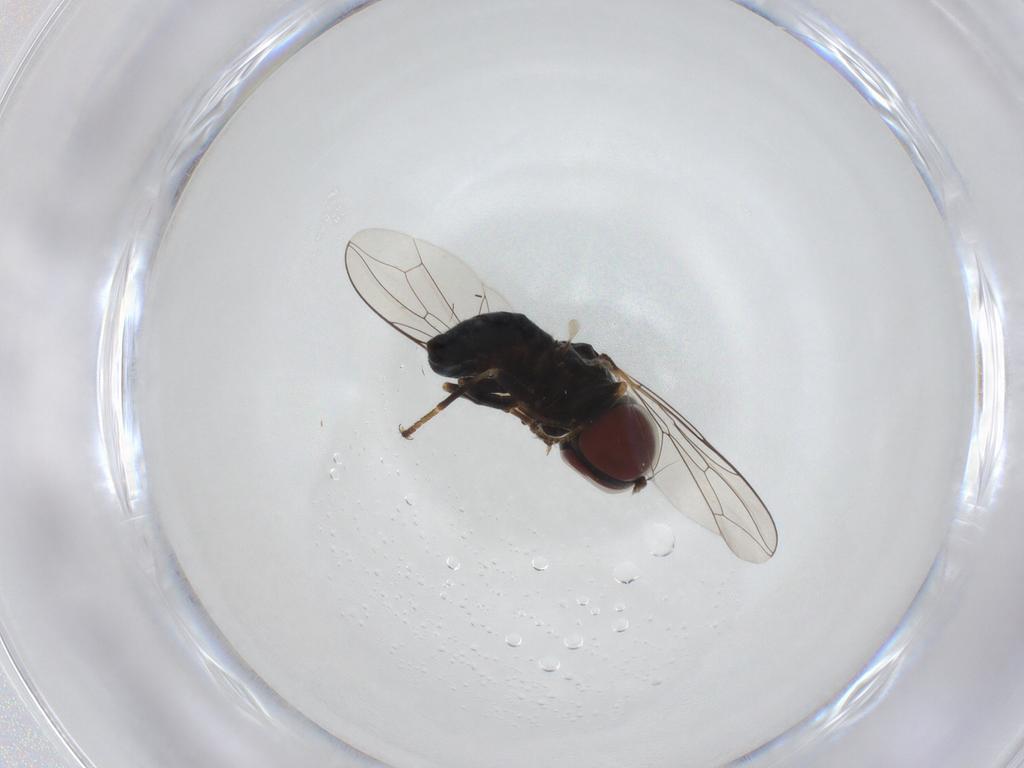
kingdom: Animalia
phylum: Arthropoda
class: Insecta
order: Diptera
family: Pipunculidae
